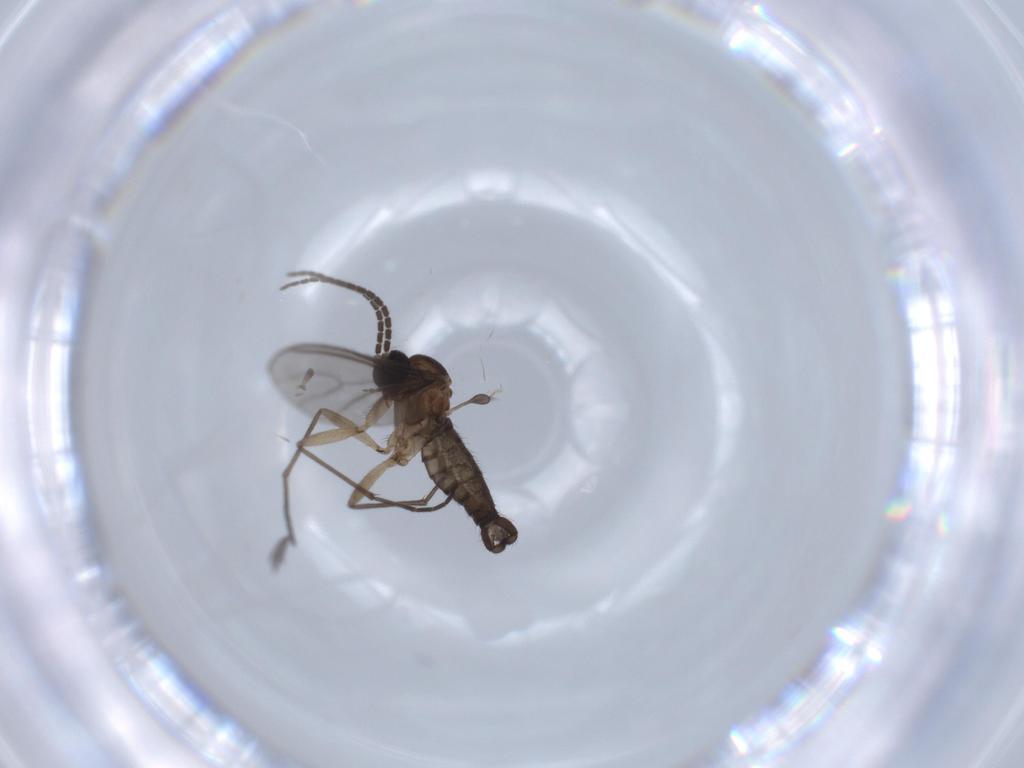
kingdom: Animalia
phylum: Arthropoda
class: Insecta
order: Diptera
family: Sciaridae
